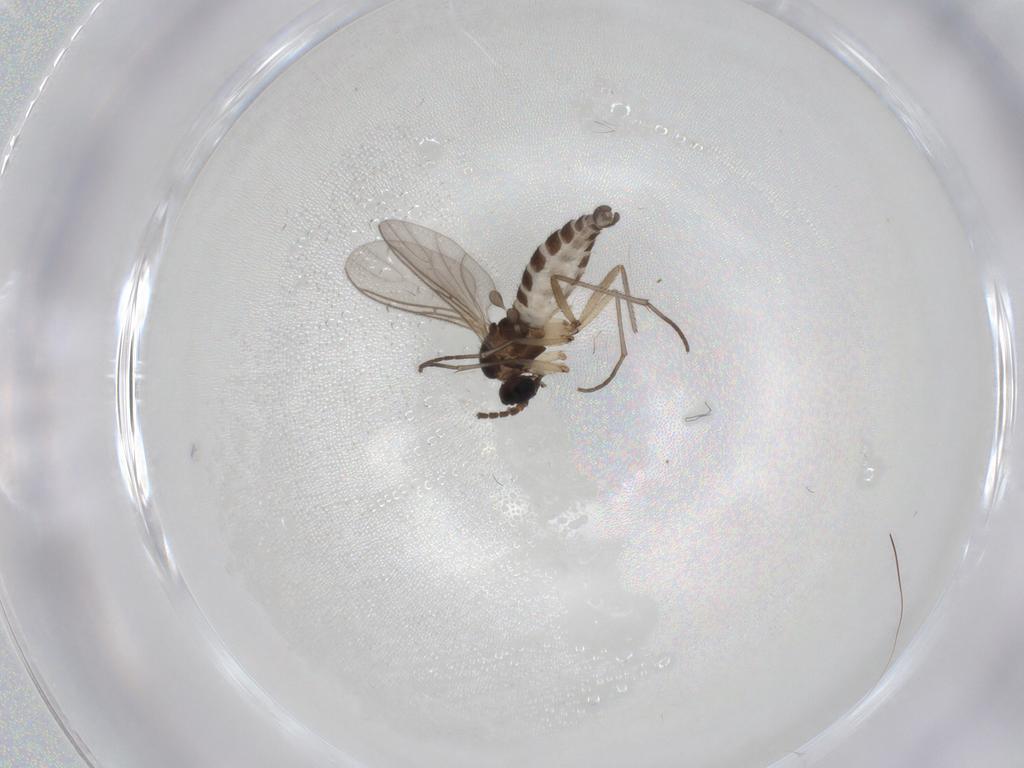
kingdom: Animalia
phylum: Arthropoda
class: Insecta
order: Diptera
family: Sciaridae
